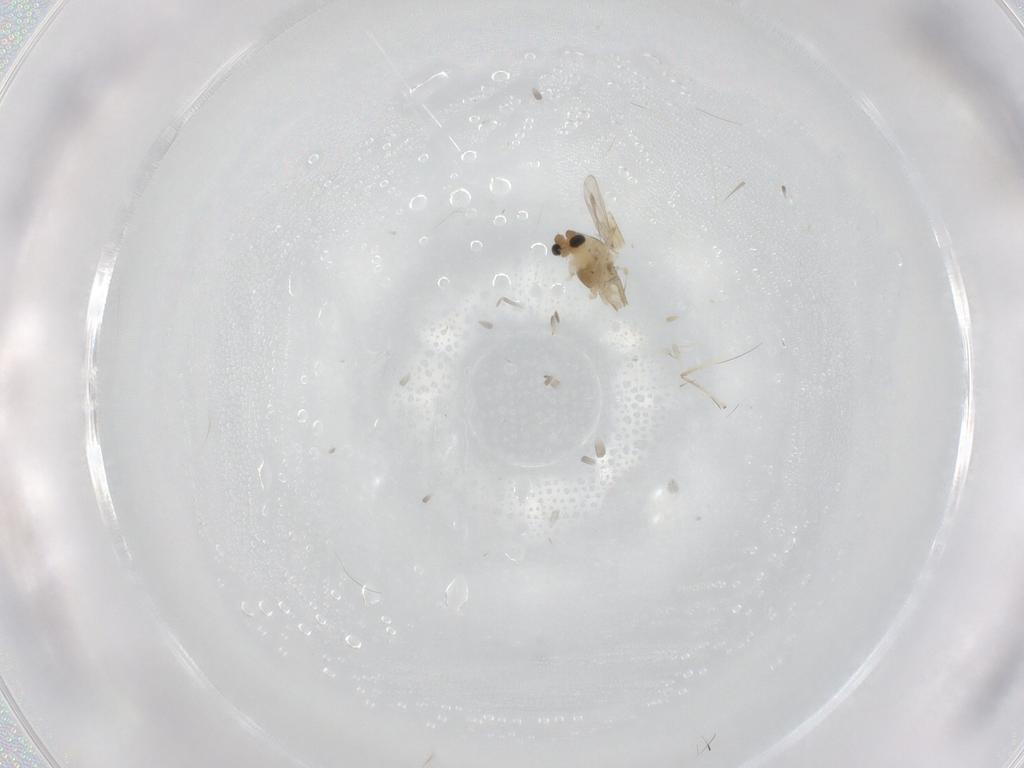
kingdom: Animalia
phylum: Arthropoda
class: Insecta
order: Diptera
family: Chironomidae
